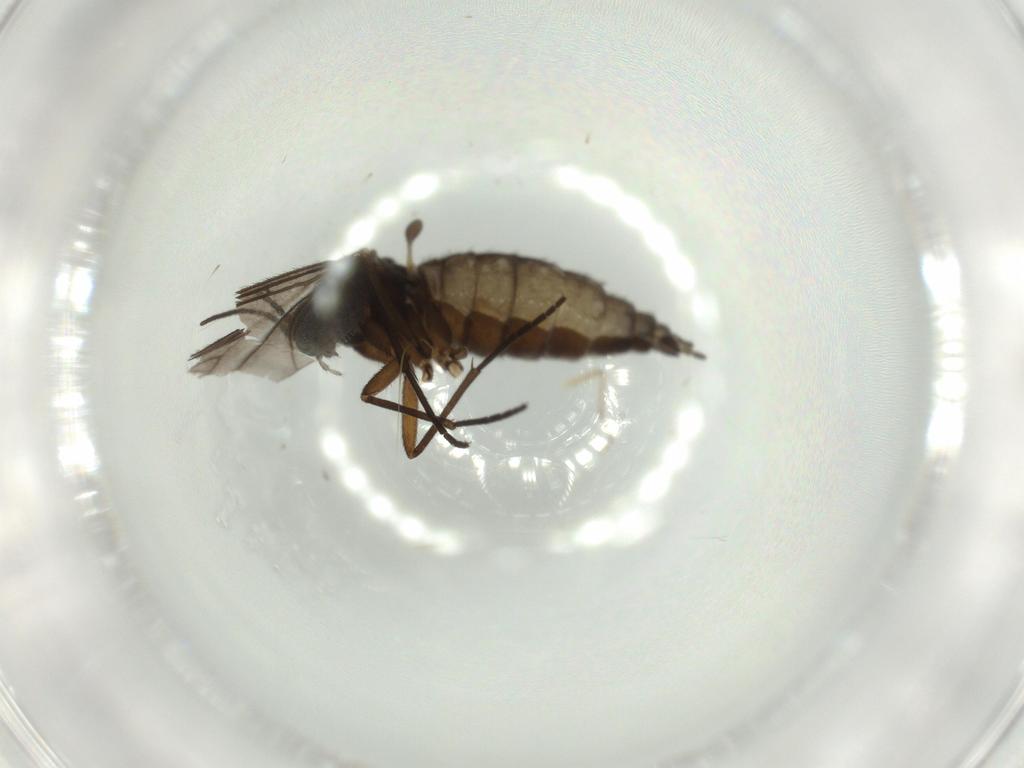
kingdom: Animalia
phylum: Arthropoda
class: Insecta
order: Diptera
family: Sciaridae
